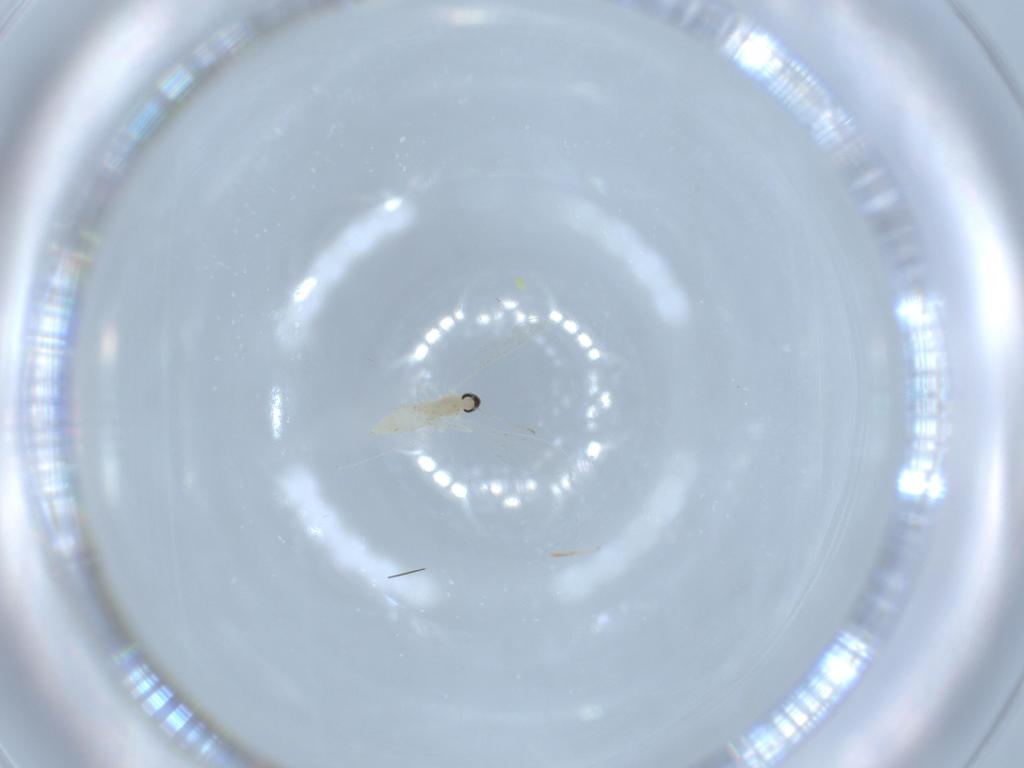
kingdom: Animalia
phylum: Arthropoda
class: Insecta
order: Diptera
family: Cecidomyiidae
